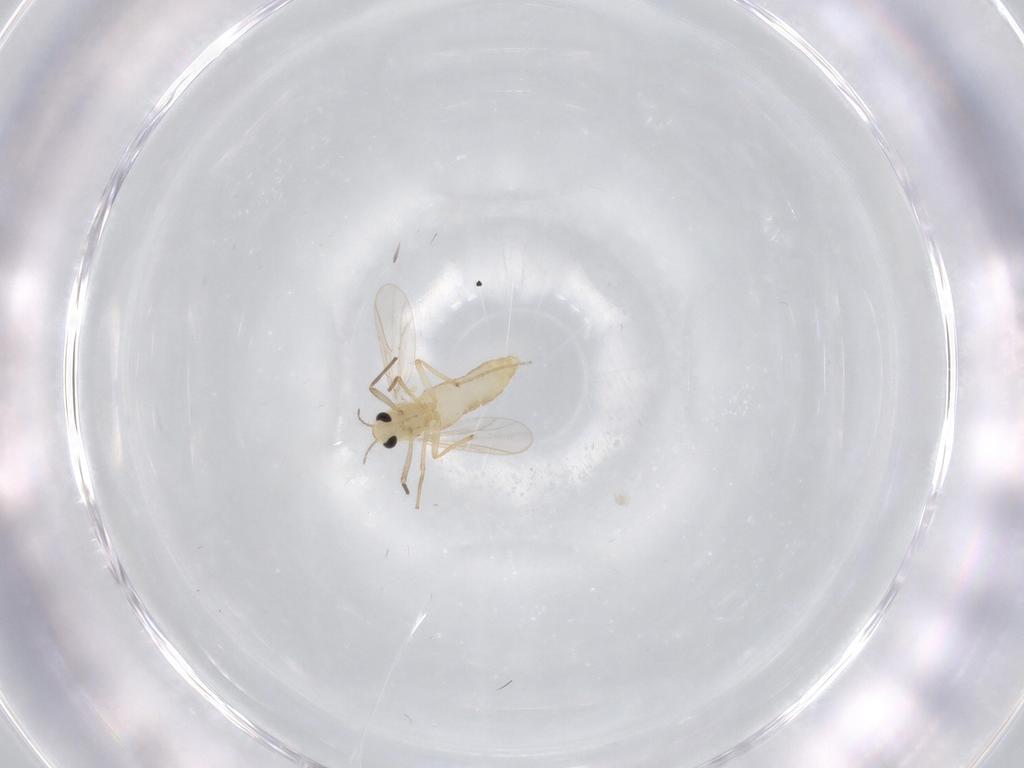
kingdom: Animalia
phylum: Arthropoda
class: Insecta
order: Diptera
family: Chironomidae
